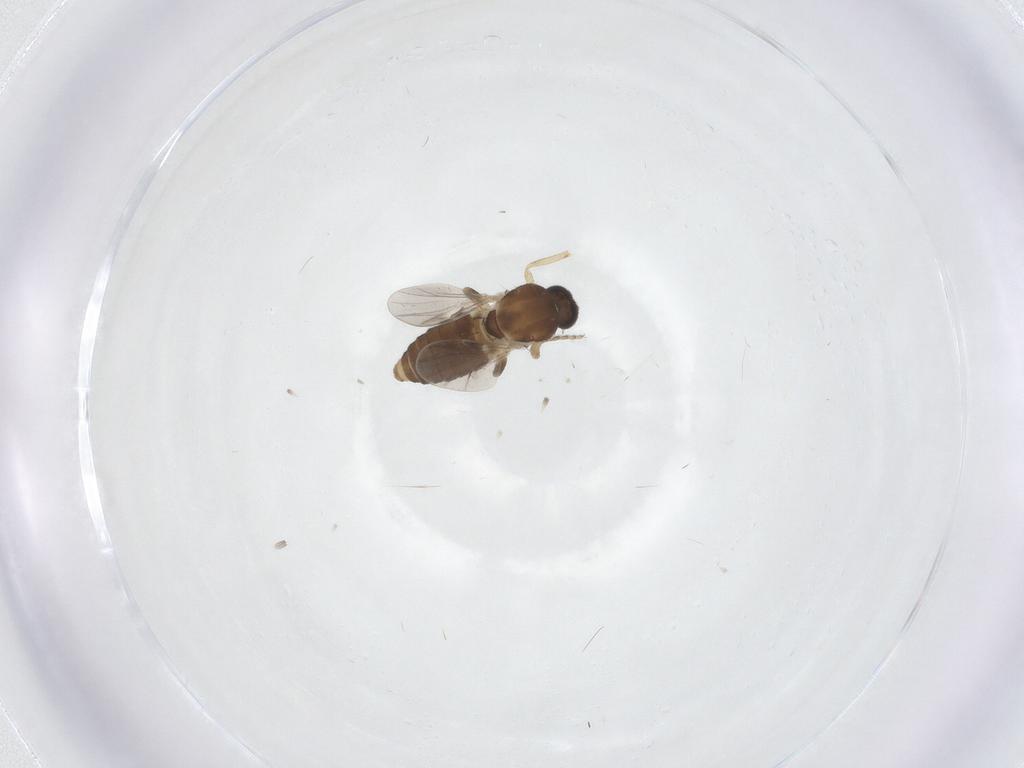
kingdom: Animalia
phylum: Arthropoda
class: Insecta
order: Diptera
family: Ceratopogonidae
